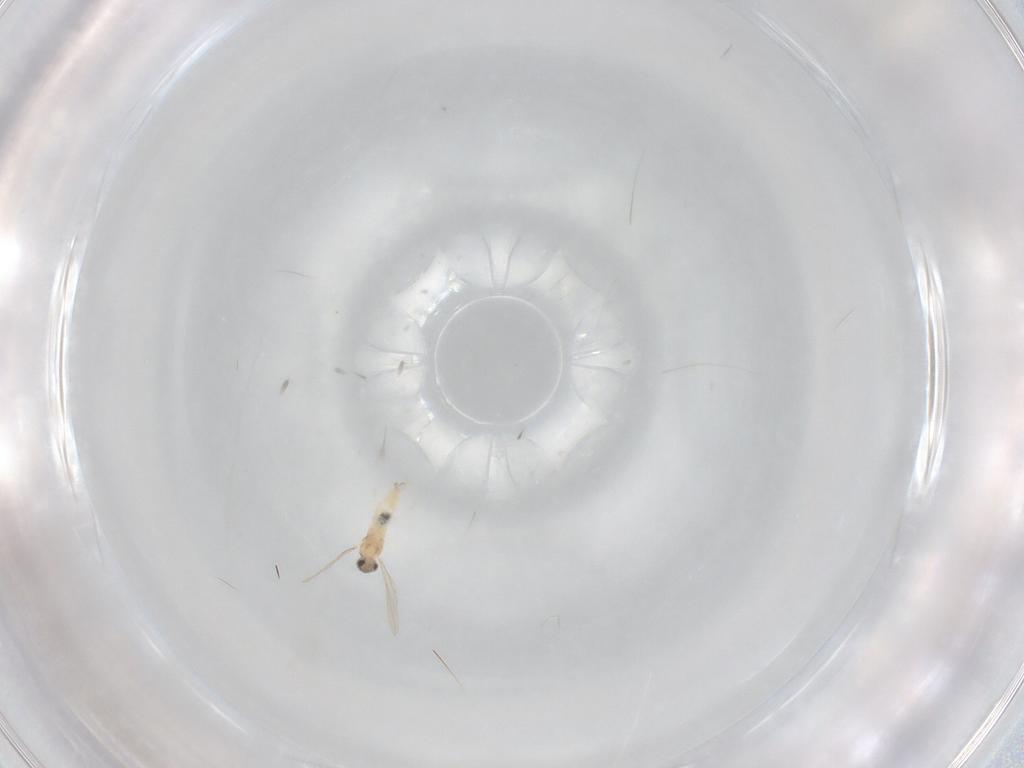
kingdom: Animalia
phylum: Arthropoda
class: Insecta
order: Diptera
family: Cecidomyiidae
